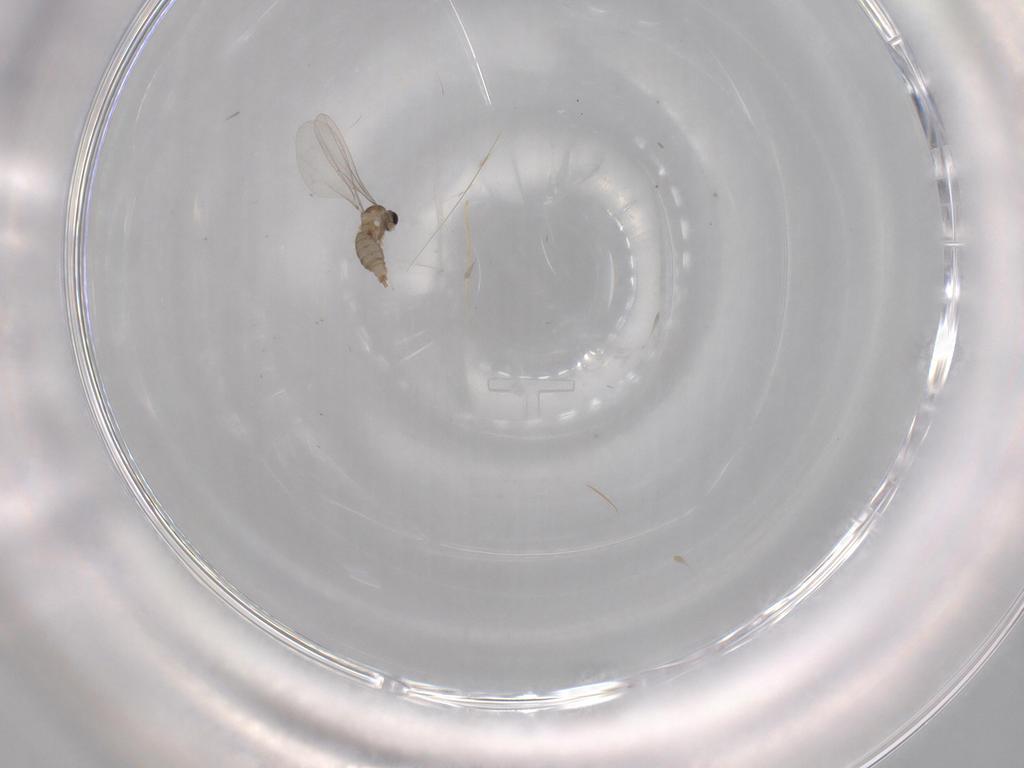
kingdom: Animalia
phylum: Arthropoda
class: Insecta
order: Diptera
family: Cecidomyiidae
